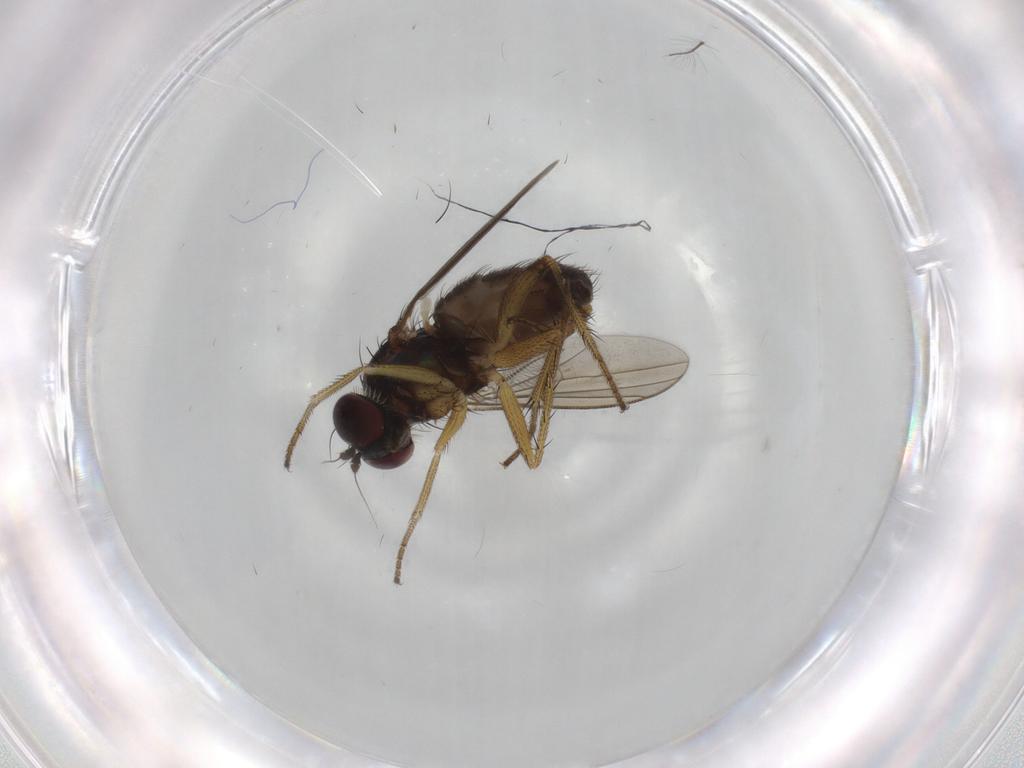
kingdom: Animalia
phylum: Arthropoda
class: Insecta
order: Diptera
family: Dolichopodidae
